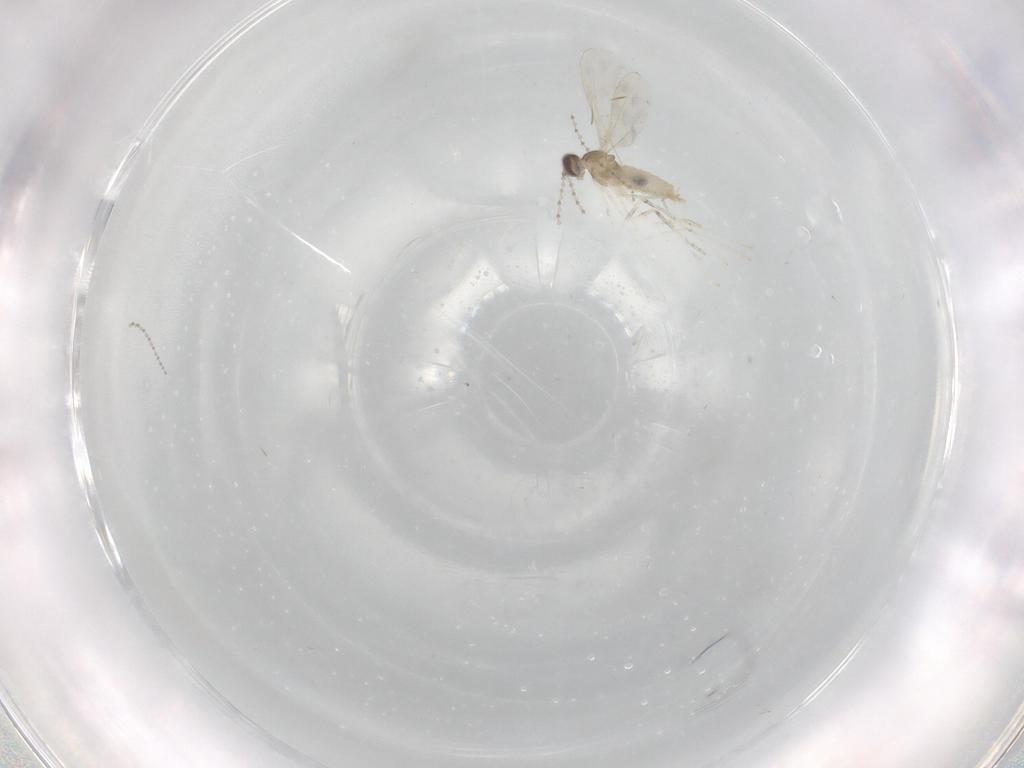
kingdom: Animalia
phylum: Arthropoda
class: Insecta
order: Diptera
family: Cecidomyiidae
